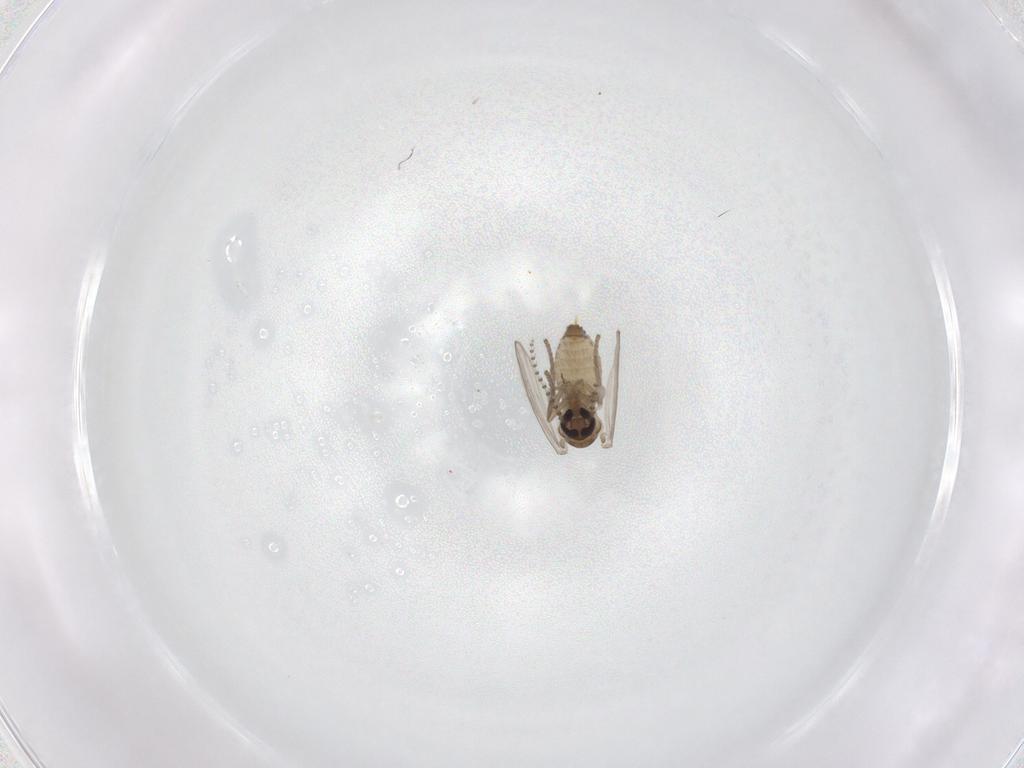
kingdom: Animalia
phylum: Arthropoda
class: Insecta
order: Diptera
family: Psychodidae
